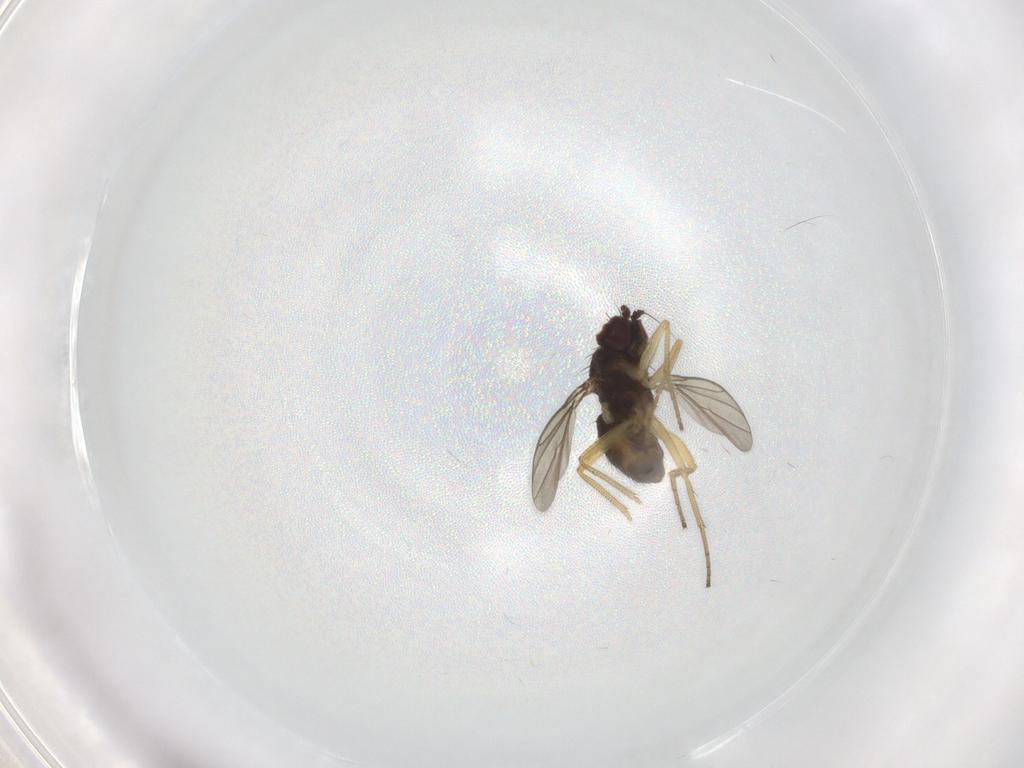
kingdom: Animalia
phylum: Arthropoda
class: Insecta
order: Diptera
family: Dolichopodidae
